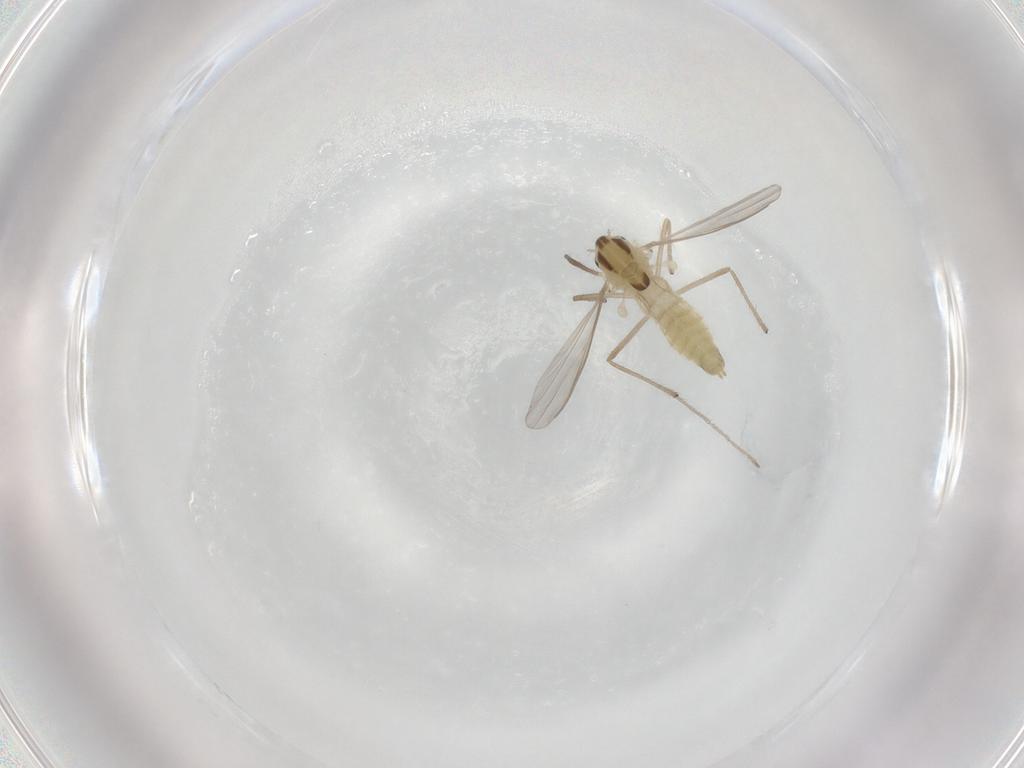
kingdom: Animalia
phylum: Arthropoda
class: Insecta
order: Diptera
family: Chironomidae
